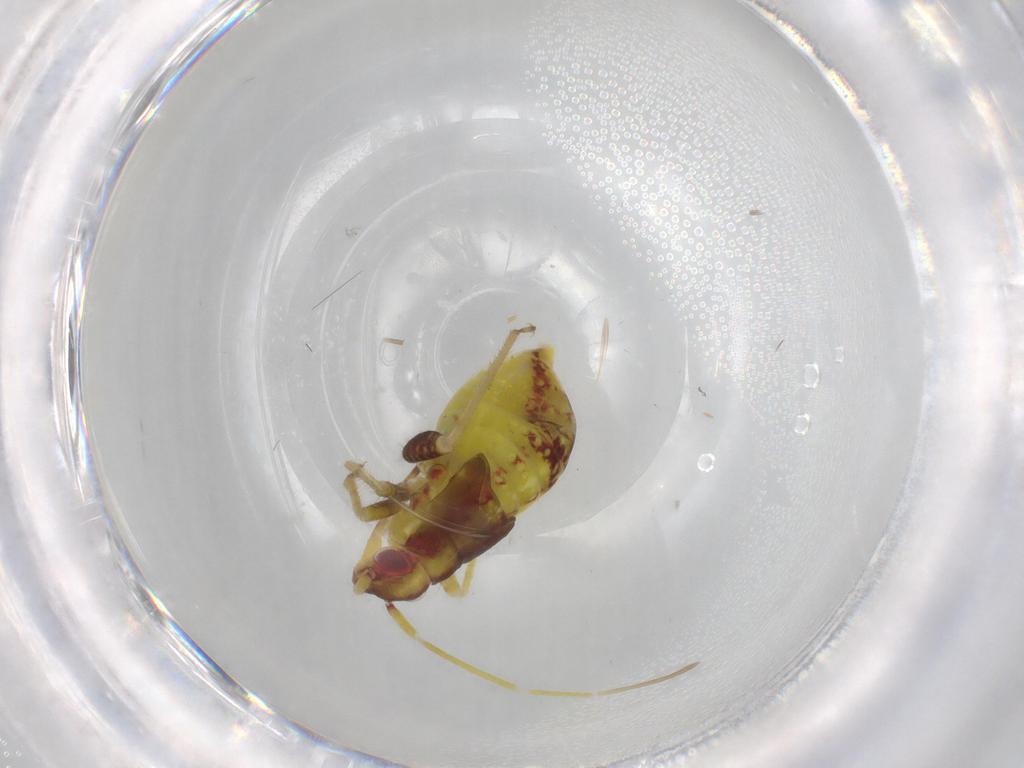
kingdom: Animalia
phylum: Arthropoda
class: Insecta
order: Hemiptera
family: Miridae
